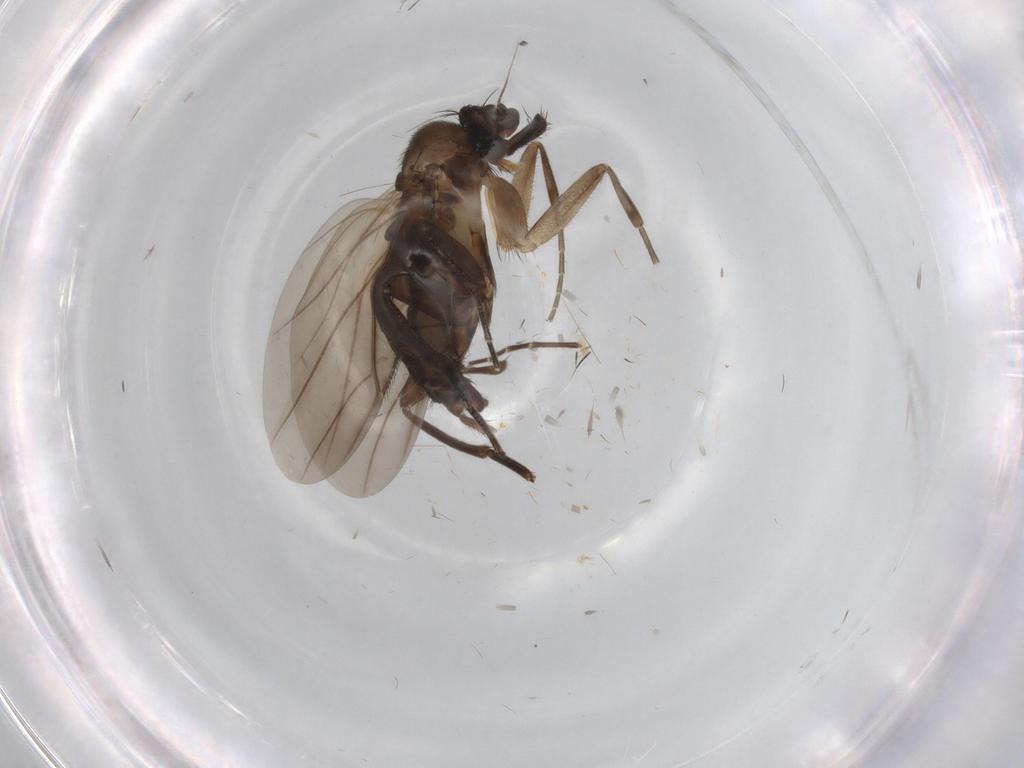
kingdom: Animalia
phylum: Arthropoda
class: Insecta
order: Diptera
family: Phoridae
